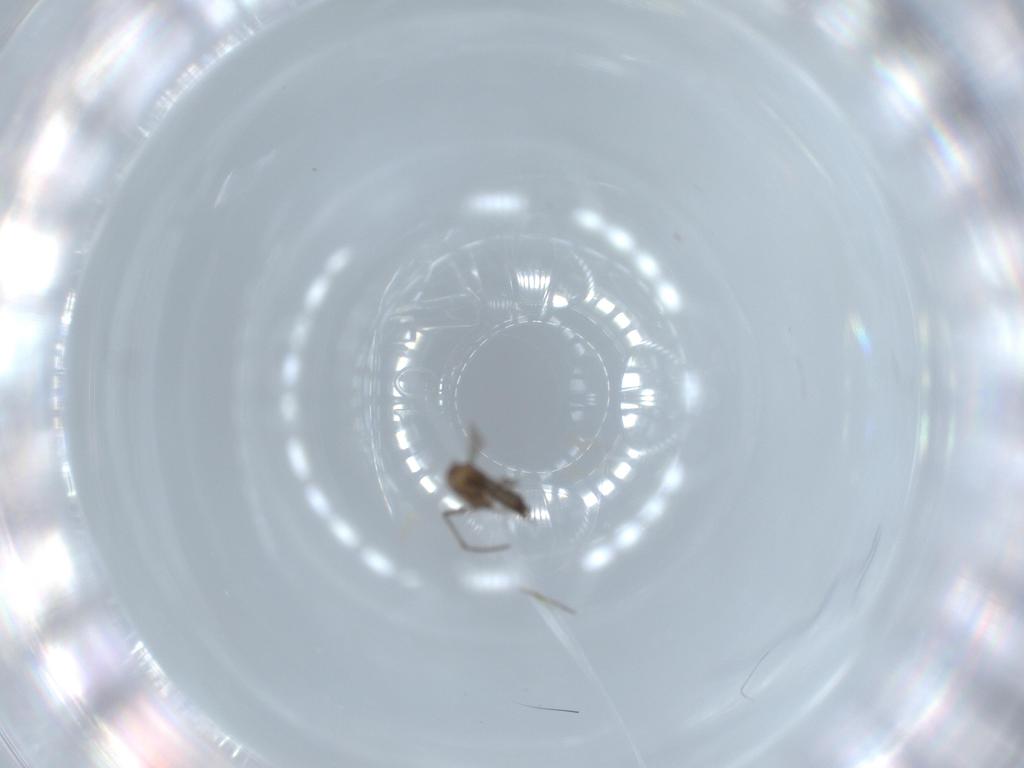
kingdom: Animalia
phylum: Arthropoda
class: Insecta
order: Diptera
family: Sciaridae
